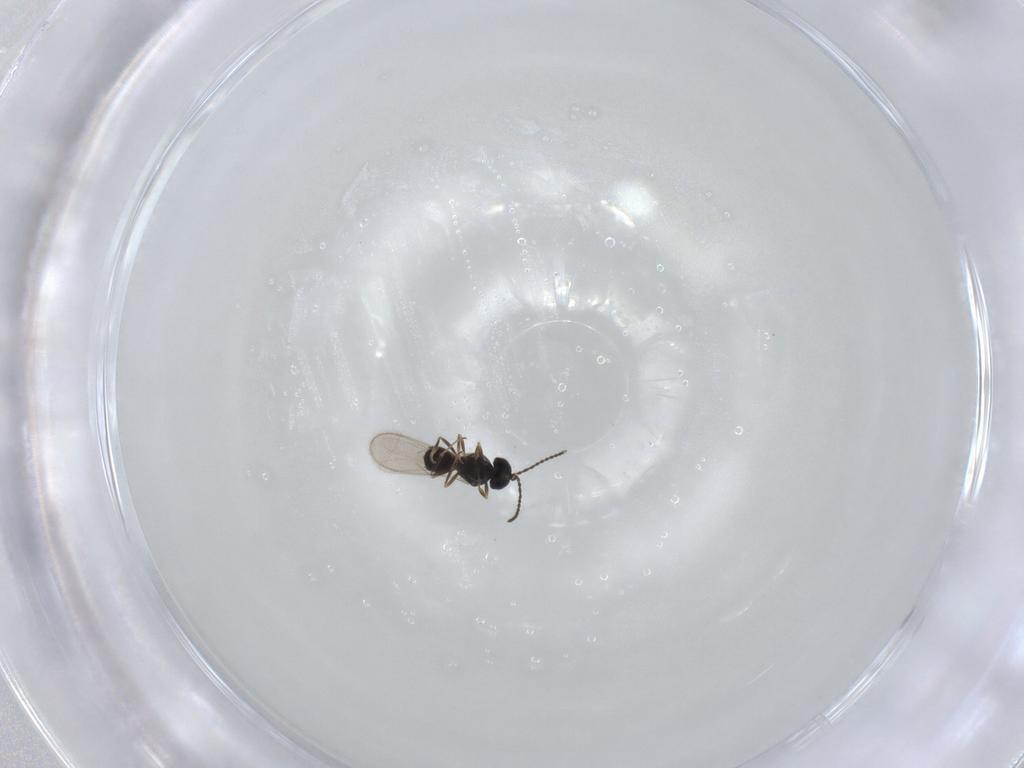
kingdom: Animalia
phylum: Arthropoda
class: Insecta
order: Hymenoptera
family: Scelionidae
